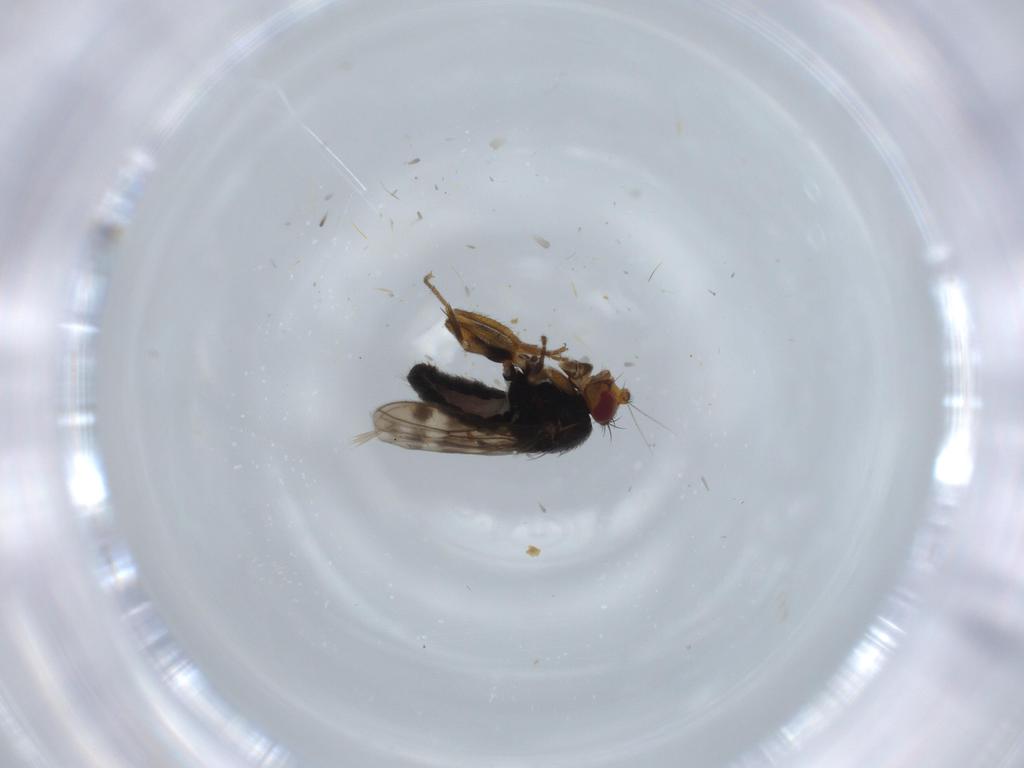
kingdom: Animalia
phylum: Arthropoda
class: Insecta
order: Diptera
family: Sphaeroceridae
